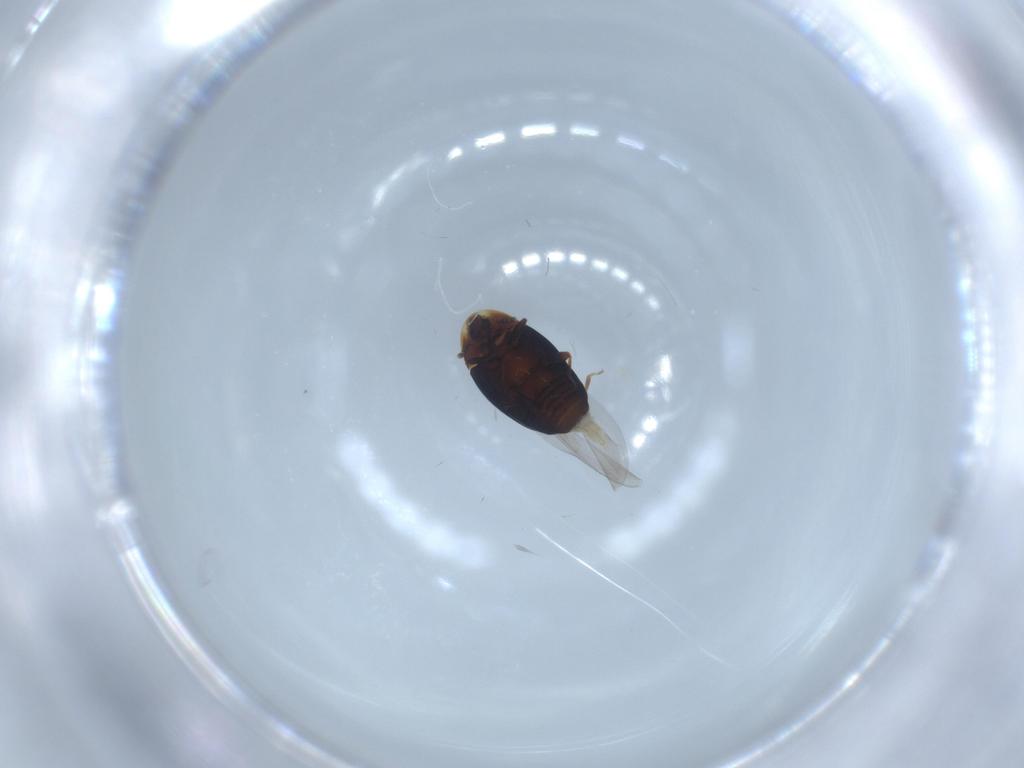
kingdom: Animalia
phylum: Arthropoda
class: Insecta
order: Coleoptera
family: Corylophidae
